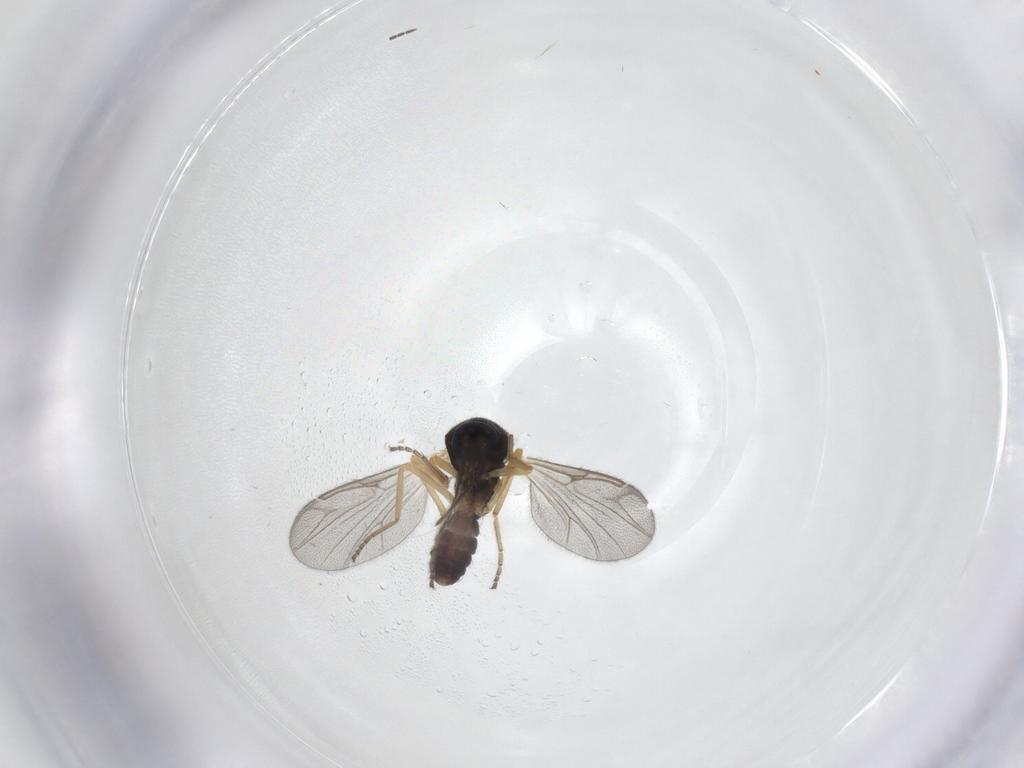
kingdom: Animalia
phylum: Arthropoda
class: Insecta
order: Diptera
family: Ceratopogonidae
